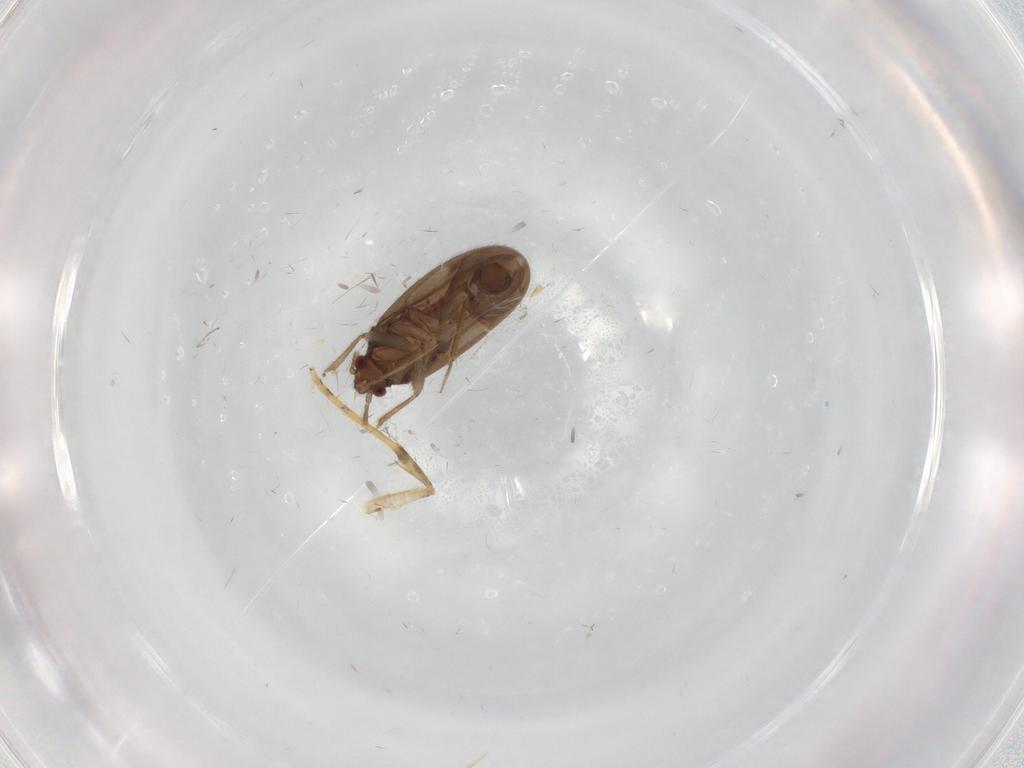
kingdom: Animalia
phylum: Arthropoda
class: Insecta
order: Hemiptera
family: Ceratocombidae
